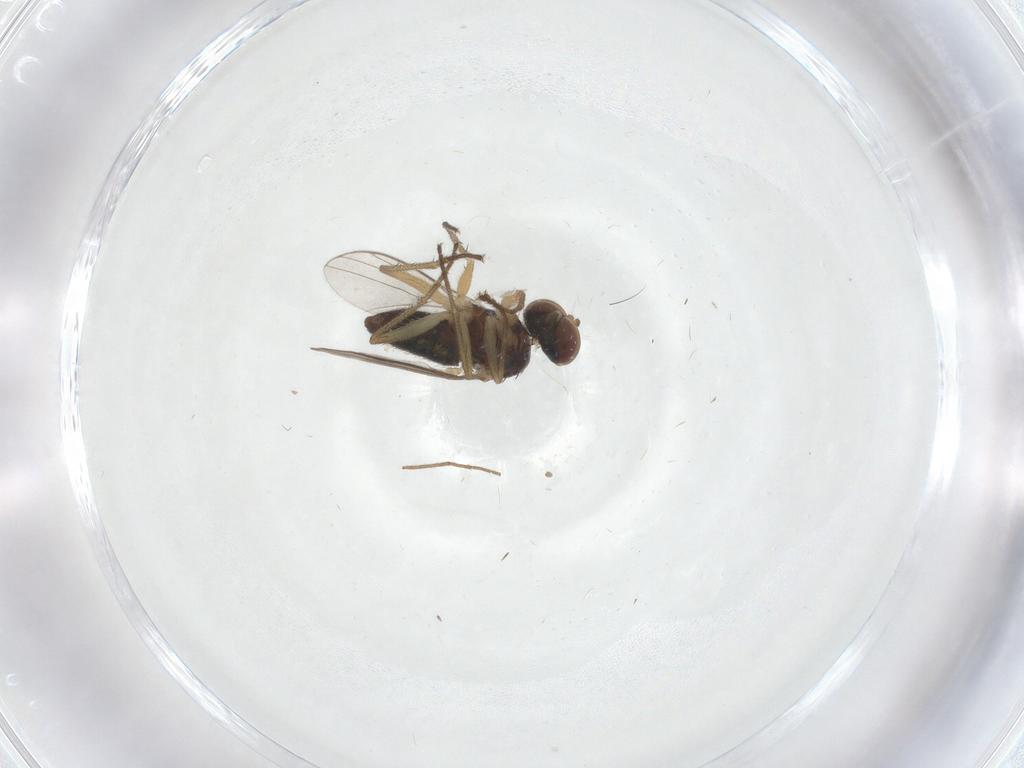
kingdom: Animalia
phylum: Arthropoda
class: Insecta
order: Diptera
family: Ceratopogonidae
